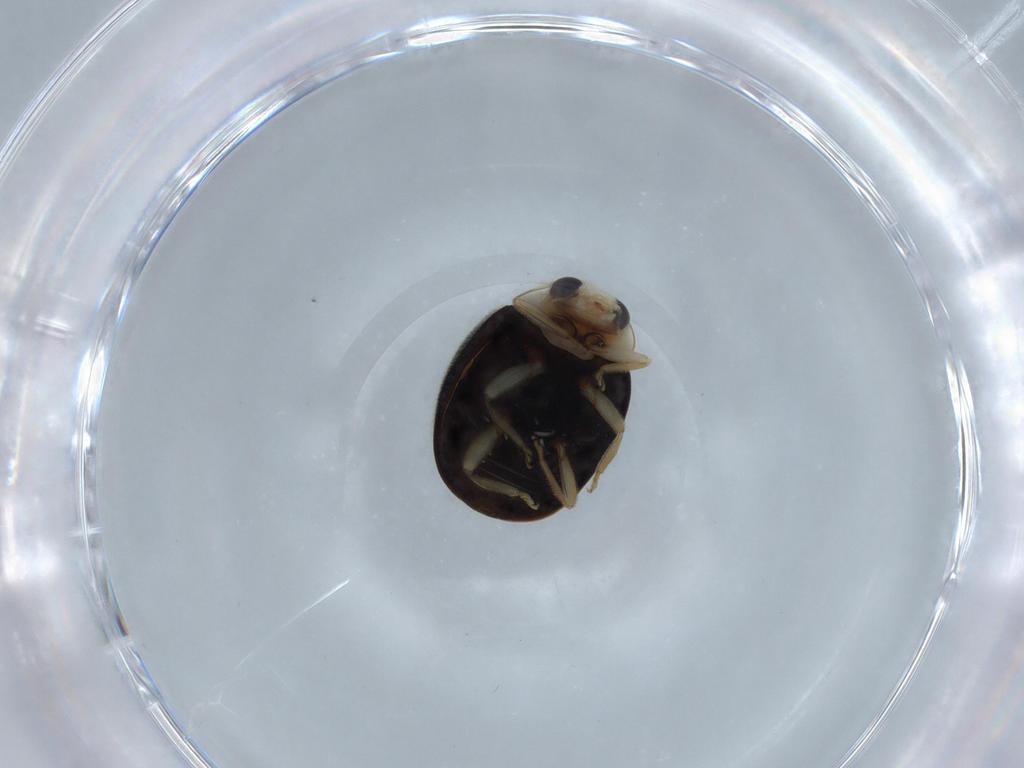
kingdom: Animalia
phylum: Arthropoda
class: Insecta
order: Coleoptera
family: Coccinellidae
